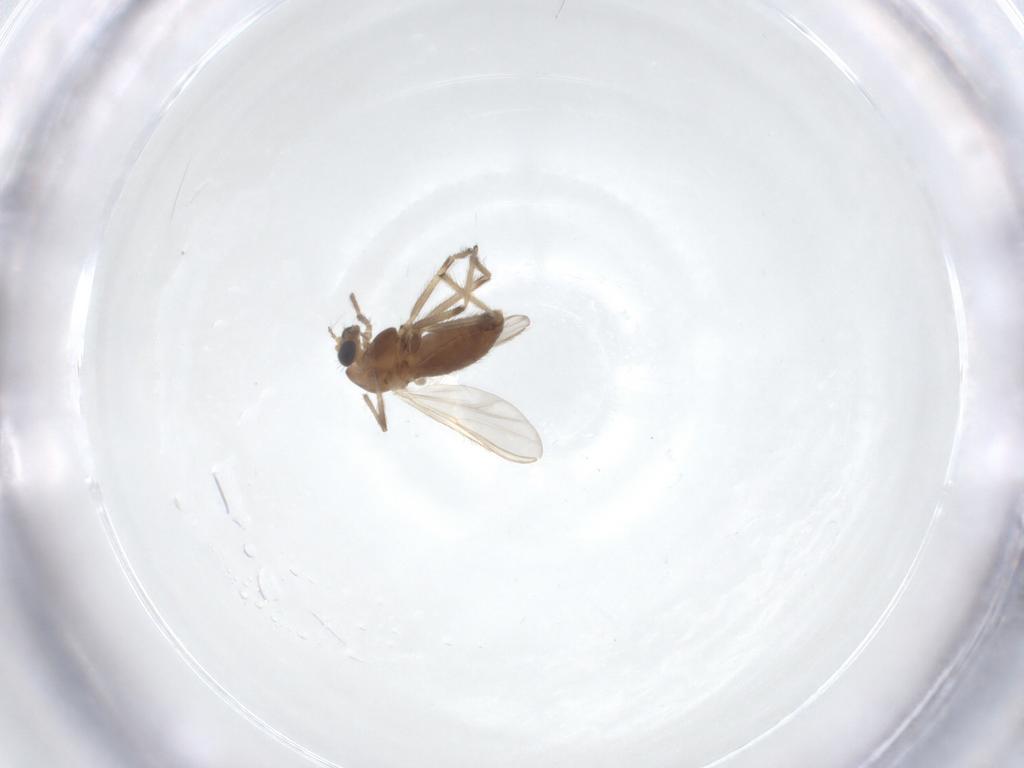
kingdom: Animalia
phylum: Arthropoda
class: Insecta
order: Diptera
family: Chironomidae
